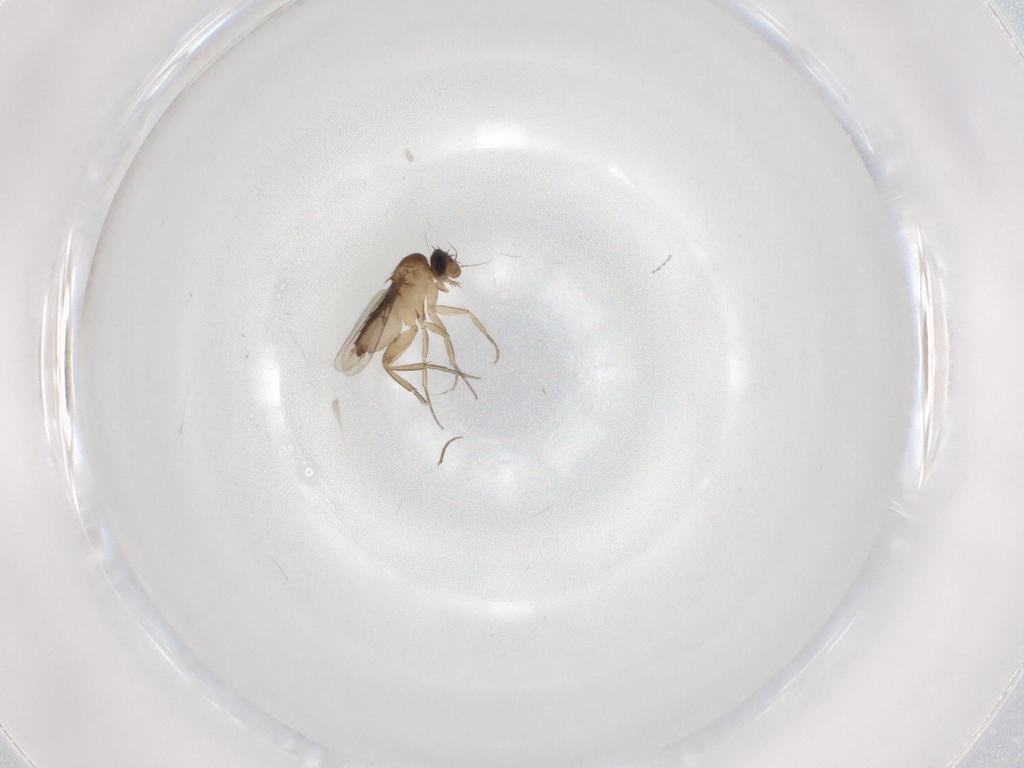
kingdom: Animalia
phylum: Arthropoda
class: Insecta
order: Diptera
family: Phoridae
